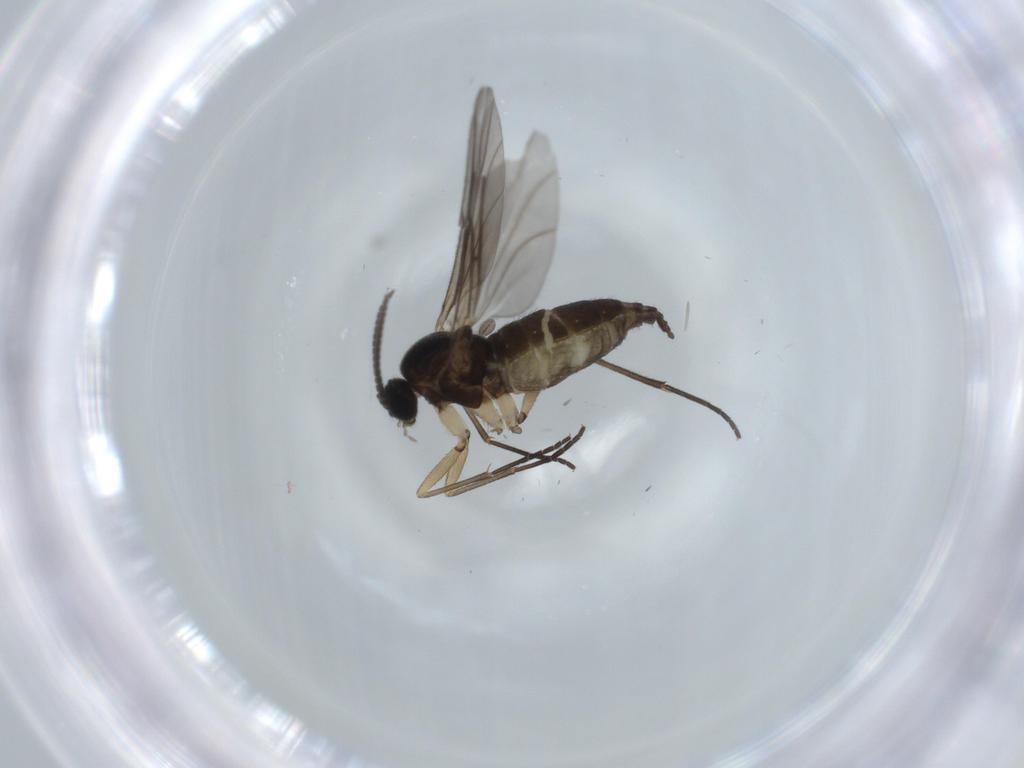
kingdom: Animalia
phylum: Arthropoda
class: Insecta
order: Diptera
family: Sciaridae
